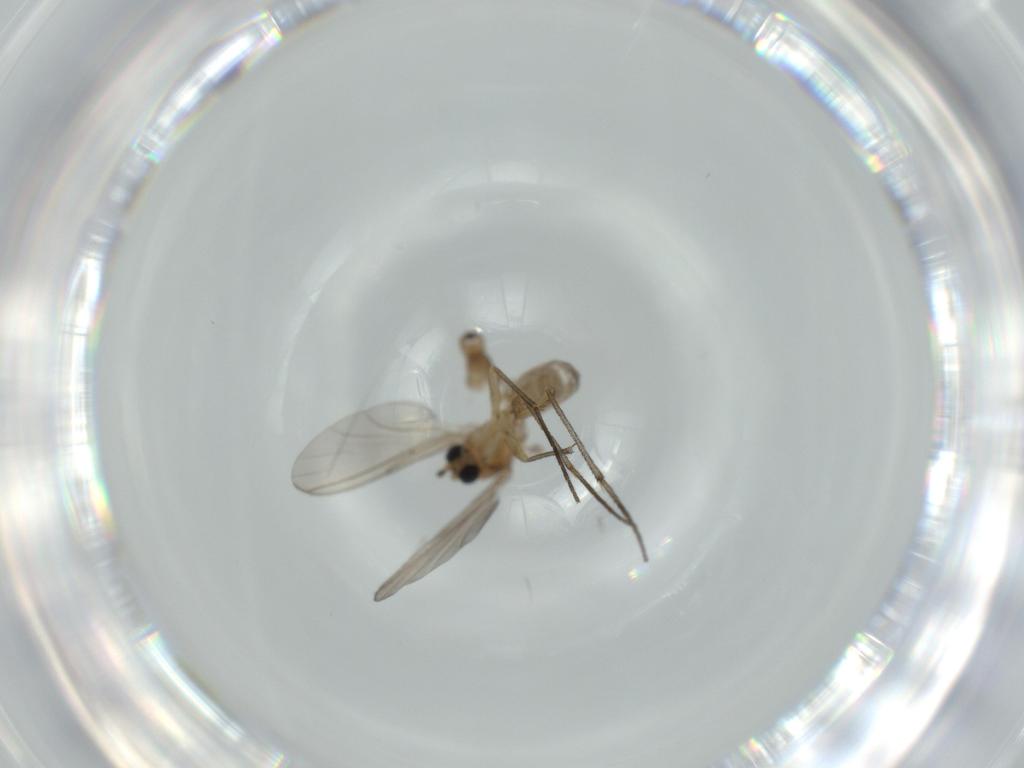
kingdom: Animalia
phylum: Arthropoda
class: Insecta
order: Diptera
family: Sciaridae
